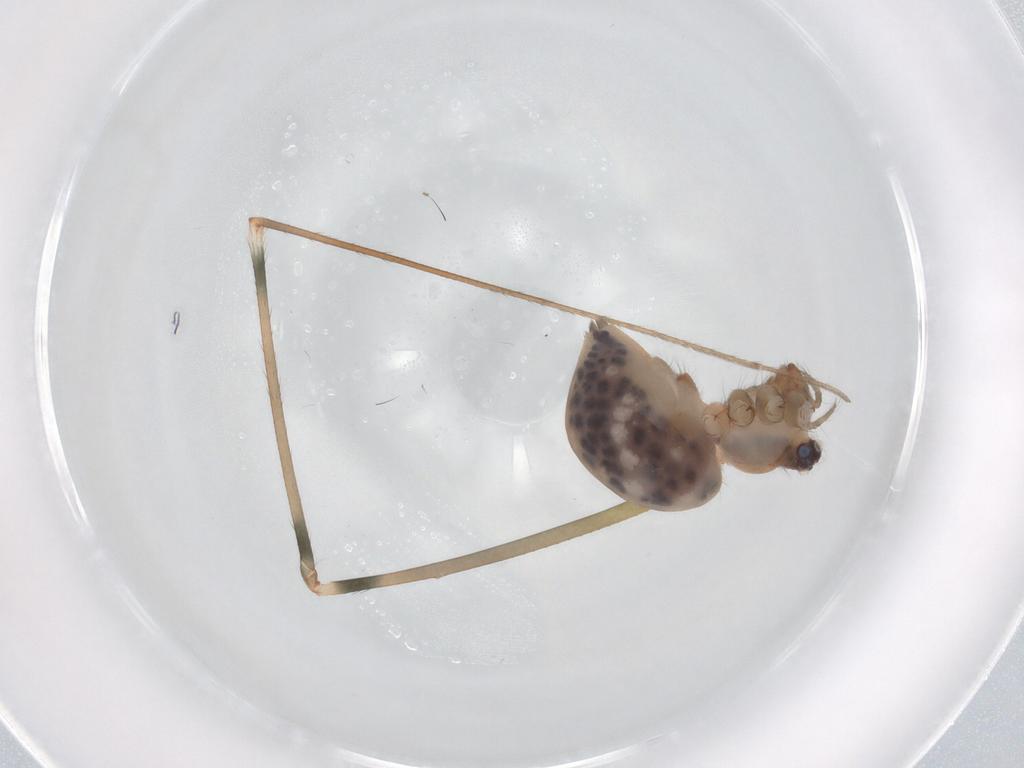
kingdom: Animalia
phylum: Arthropoda
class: Arachnida
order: Araneae
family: Pholcidae
